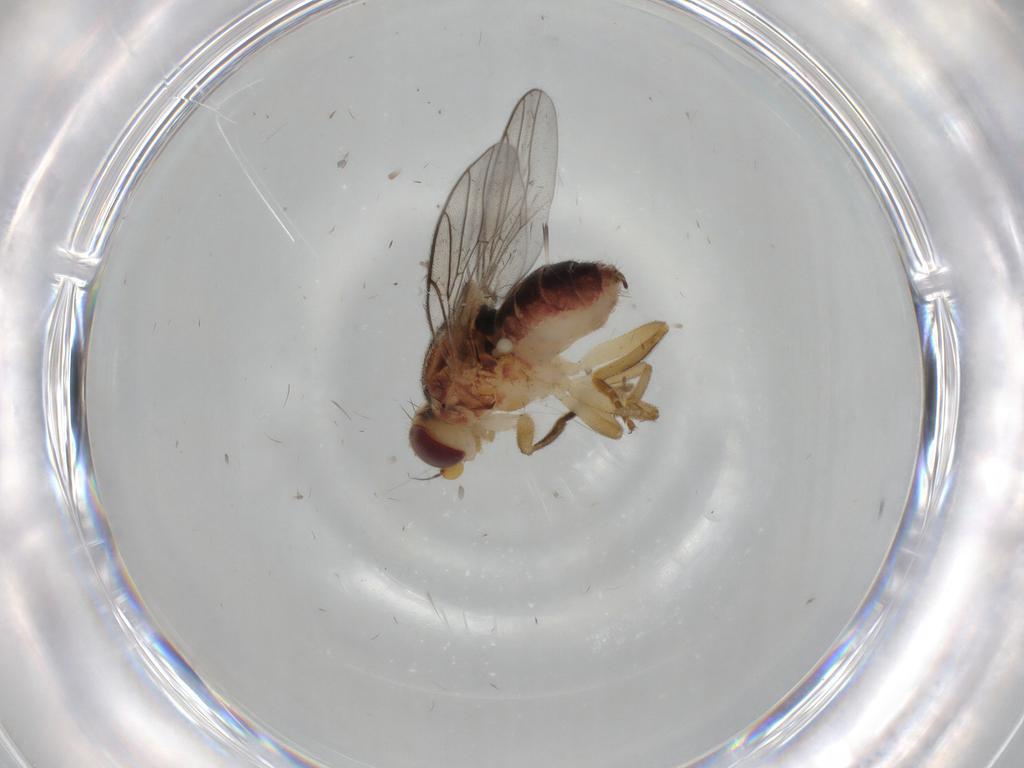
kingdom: Animalia
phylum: Arthropoda
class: Insecta
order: Diptera
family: Chloropidae
